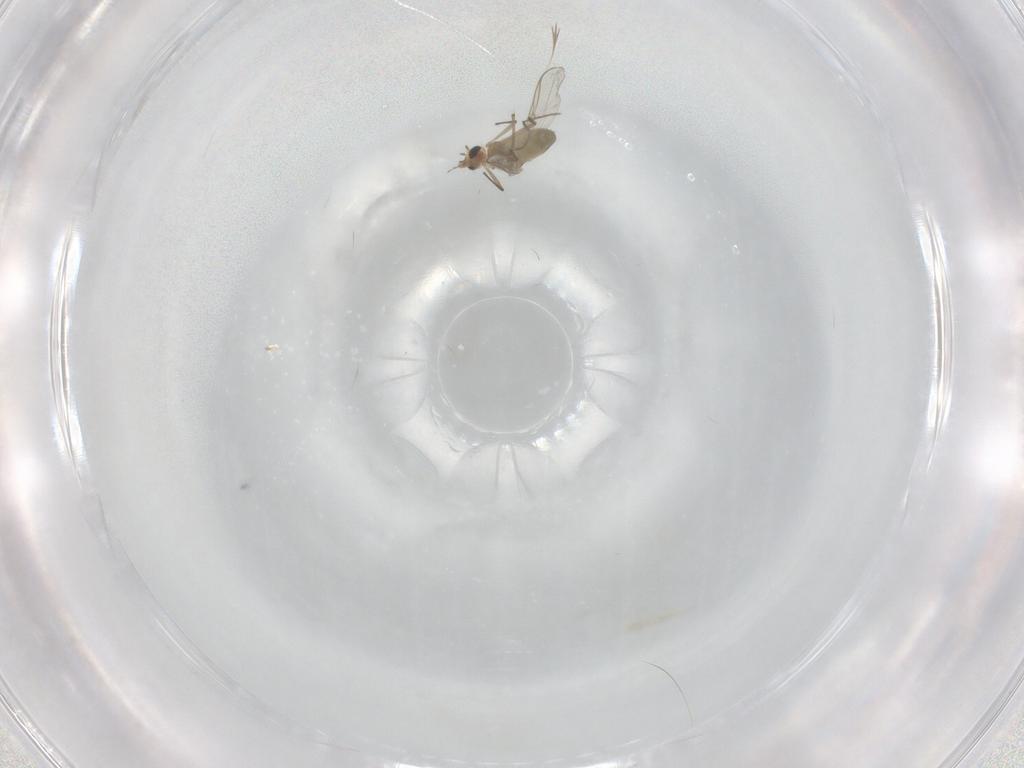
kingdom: Animalia
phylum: Arthropoda
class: Insecta
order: Diptera
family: Chironomidae
